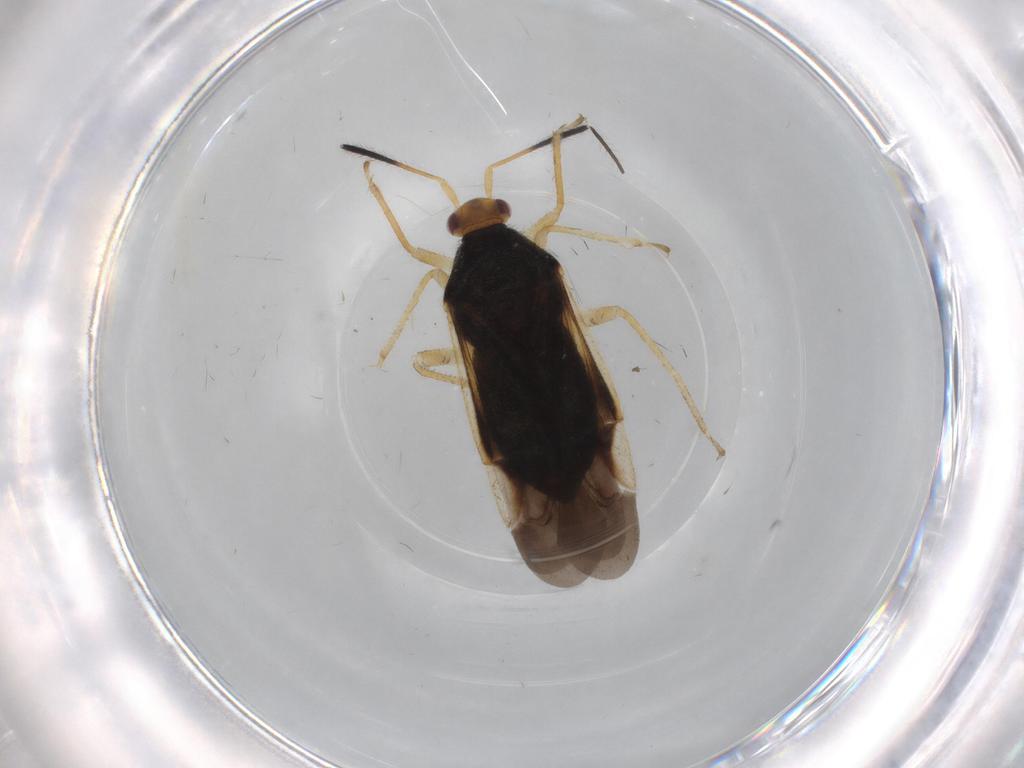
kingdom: Animalia
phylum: Arthropoda
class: Insecta
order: Hemiptera
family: Miridae
